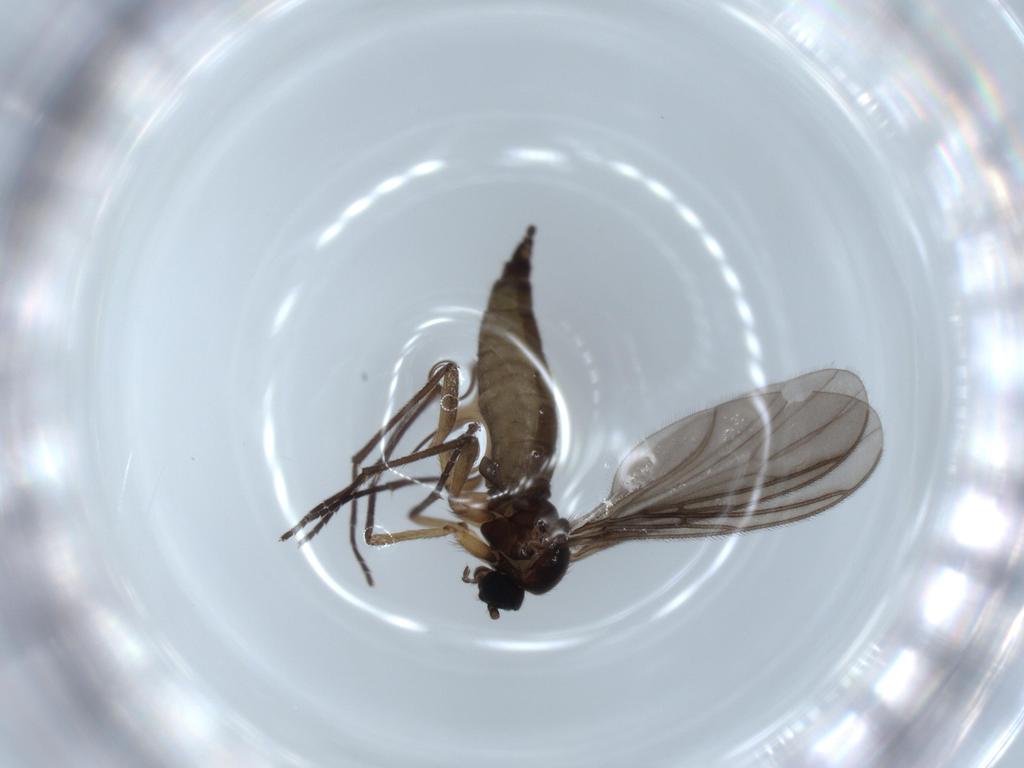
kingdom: Animalia
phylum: Arthropoda
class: Insecta
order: Diptera
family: Sciaridae
